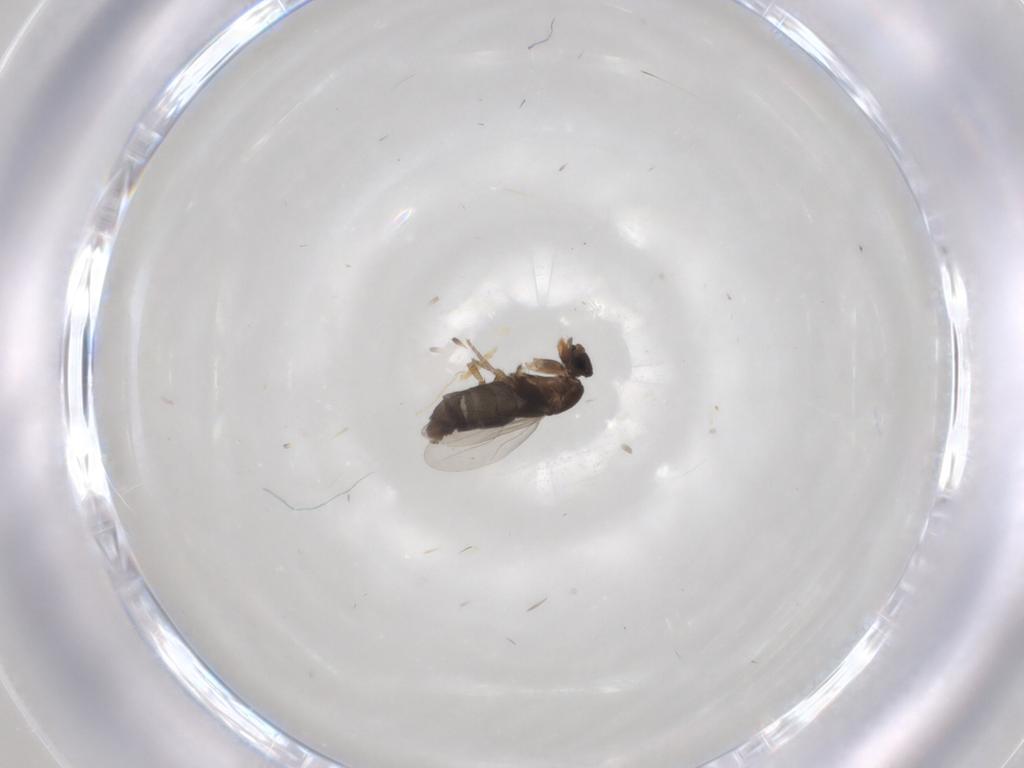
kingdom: Animalia
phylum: Arthropoda
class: Insecta
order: Diptera
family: Phoridae
